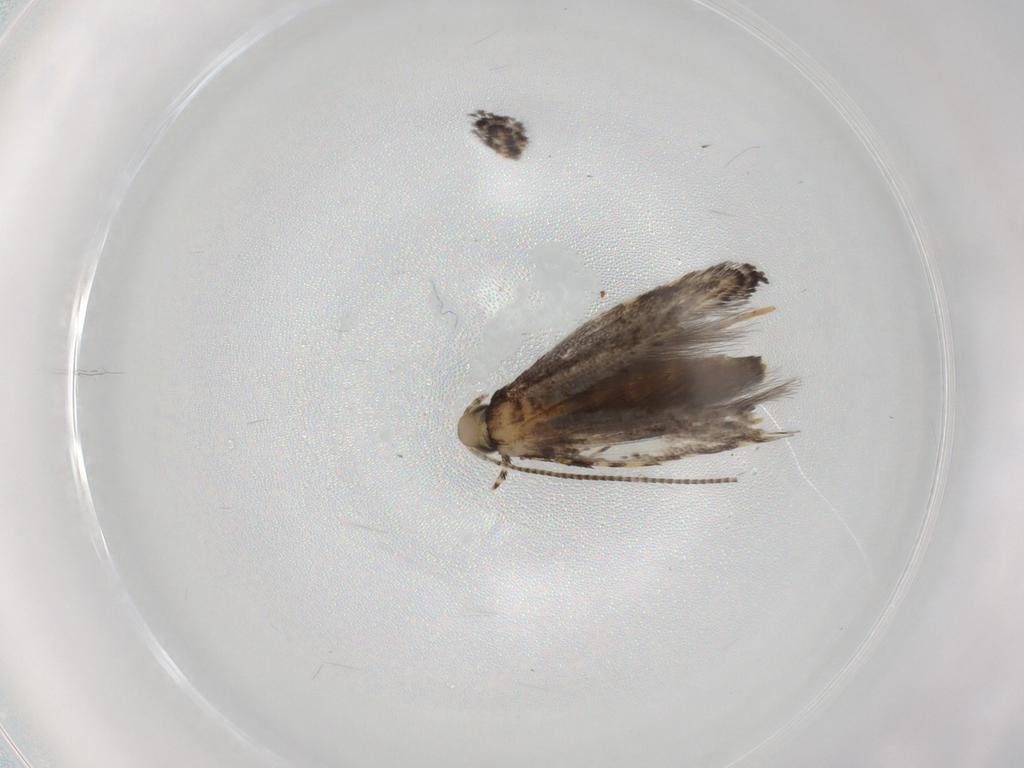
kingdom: Animalia
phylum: Arthropoda
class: Insecta
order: Lepidoptera
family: Gracillariidae
